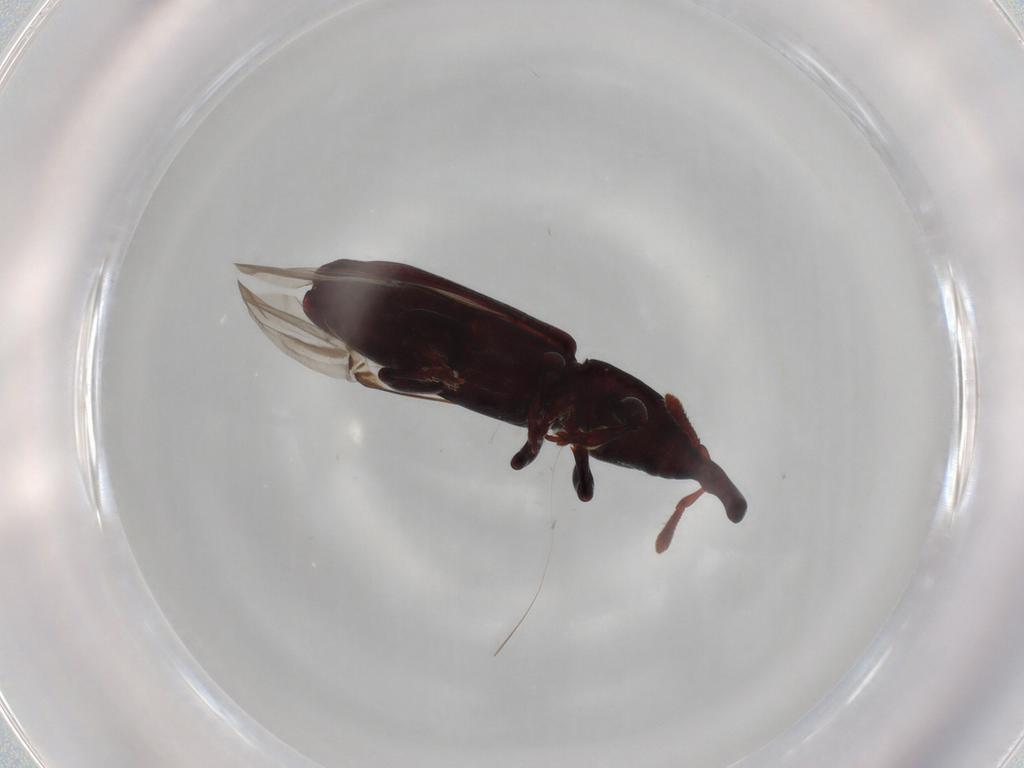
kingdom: Animalia
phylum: Arthropoda
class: Insecta
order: Coleoptera
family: Curculionidae
